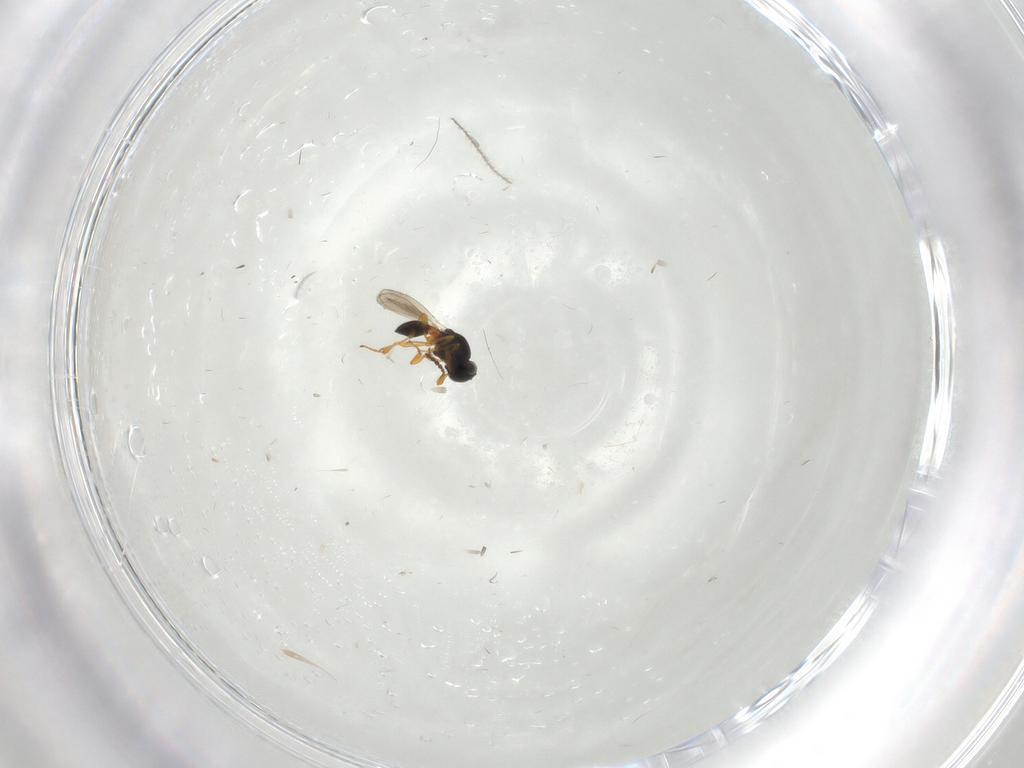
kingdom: Animalia
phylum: Arthropoda
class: Insecta
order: Hymenoptera
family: Platygastridae
